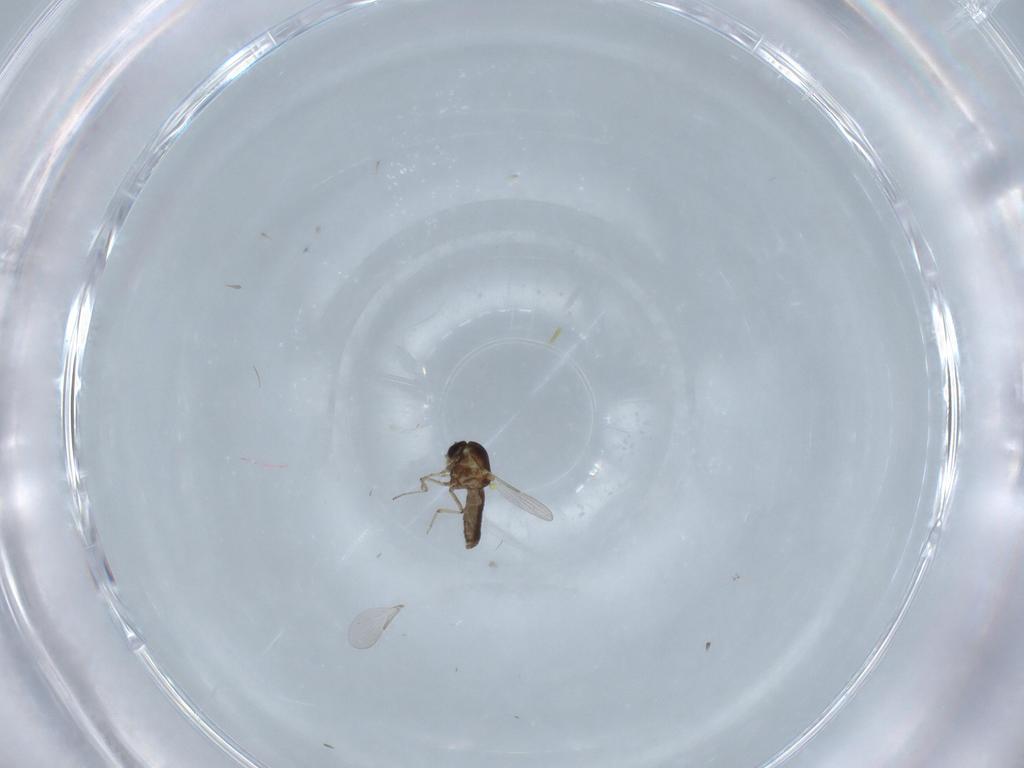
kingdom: Animalia
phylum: Arthropoda
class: Insecta
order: Diptera
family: Ceratopogonidae
